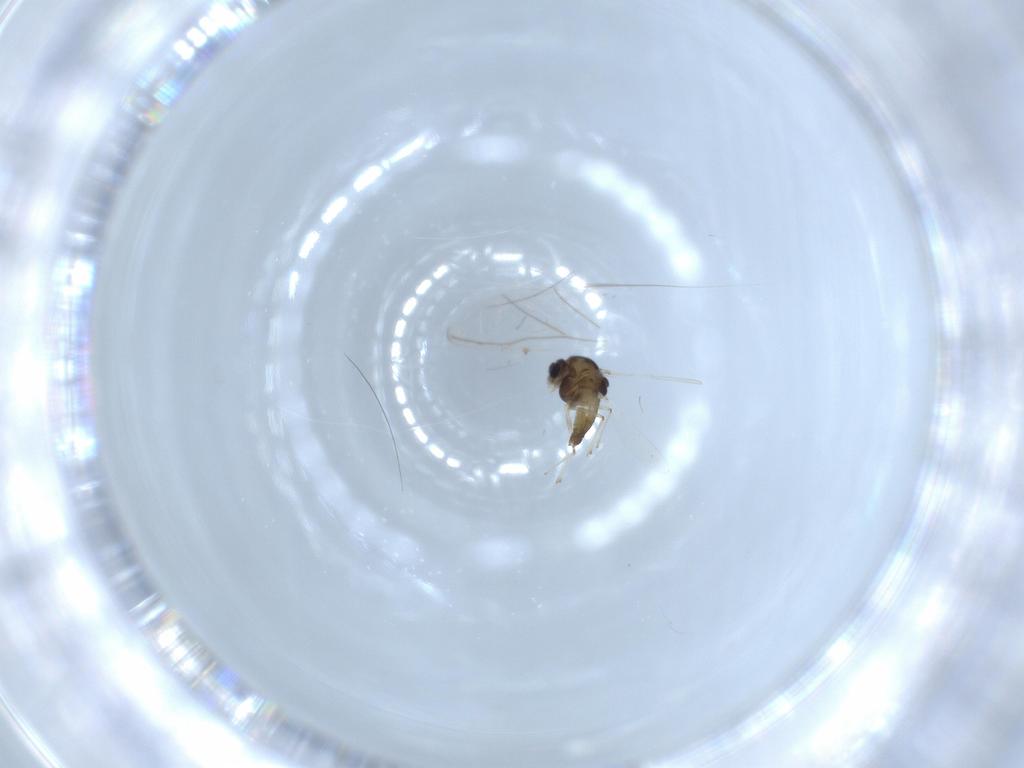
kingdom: Animalia
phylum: Arthropoda
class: Insecta
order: Diptera
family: Chironomidae
